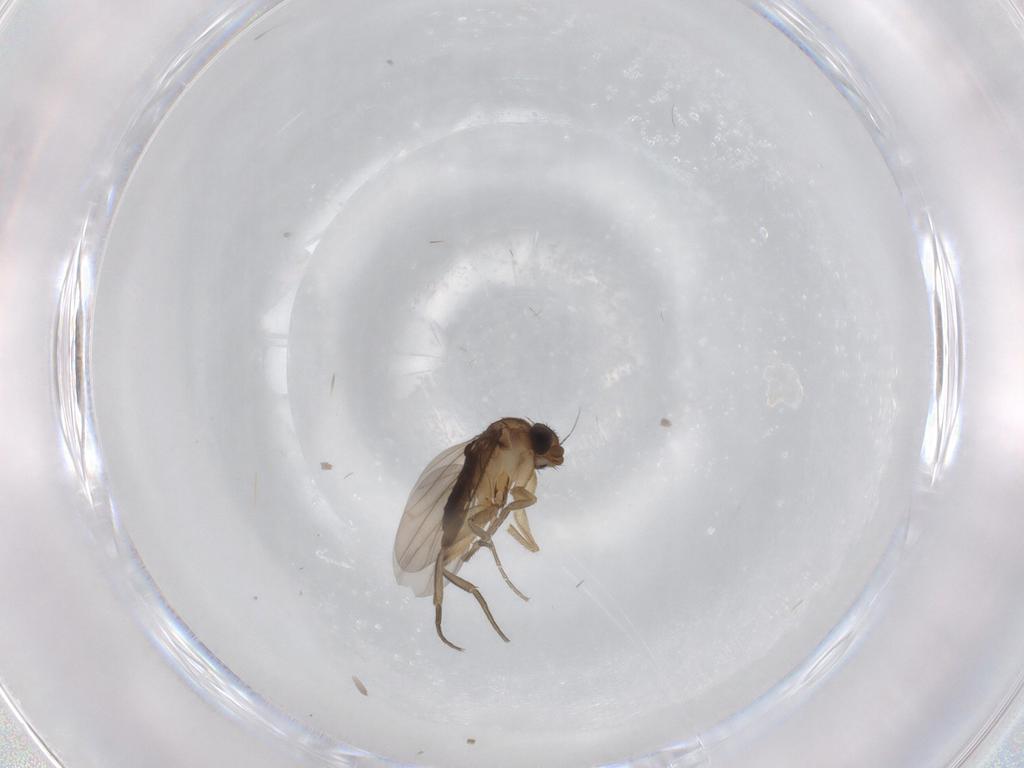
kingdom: Animalia
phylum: Arthropoda
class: Insecta
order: Diptera
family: Phoridae
